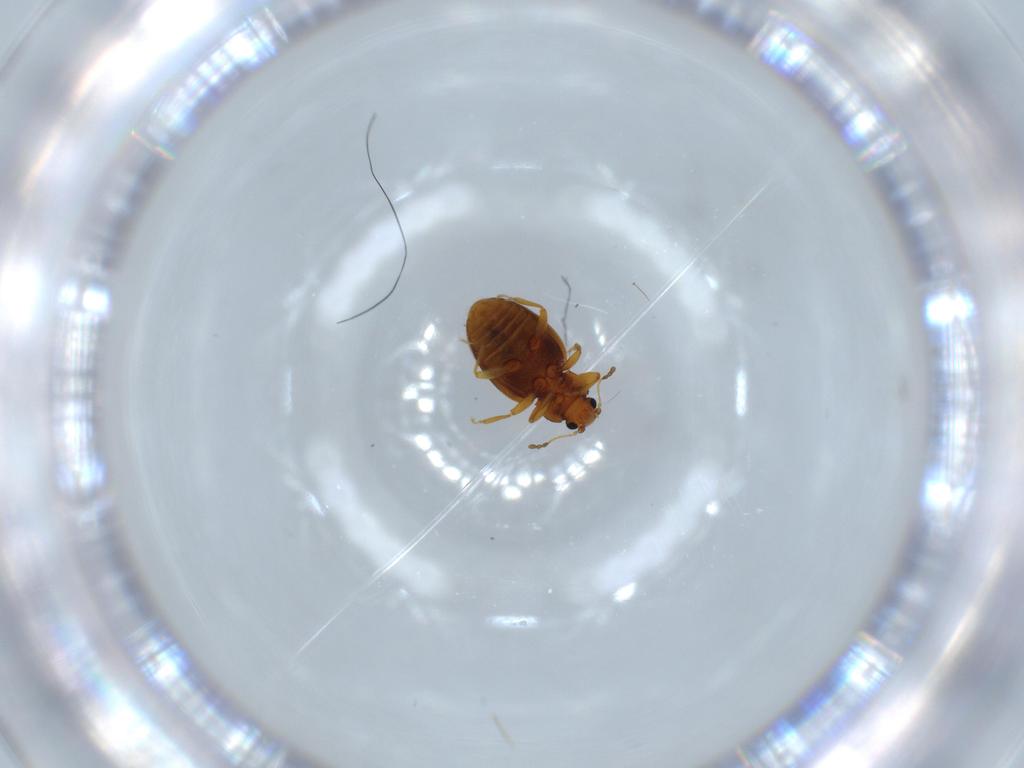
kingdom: Animalia
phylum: Arthropoda
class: Insecta
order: Coleoptera
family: Latridiidae
